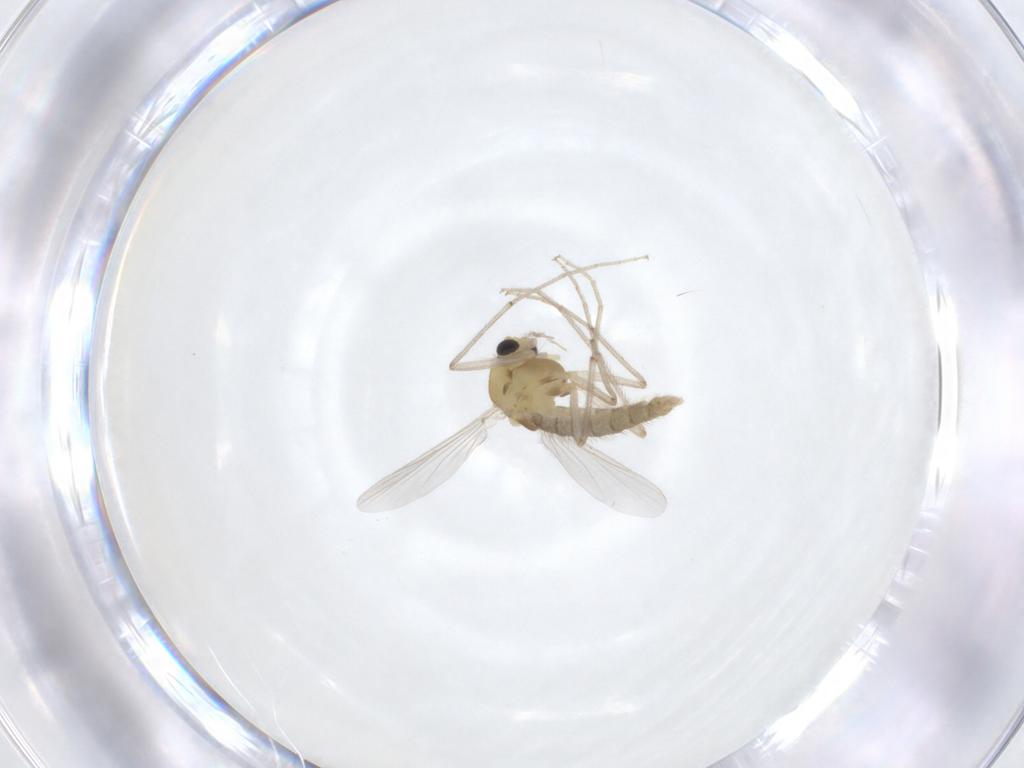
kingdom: Animalia
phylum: Arthropoda
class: Insecta
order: Diptera
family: Chironomidae
